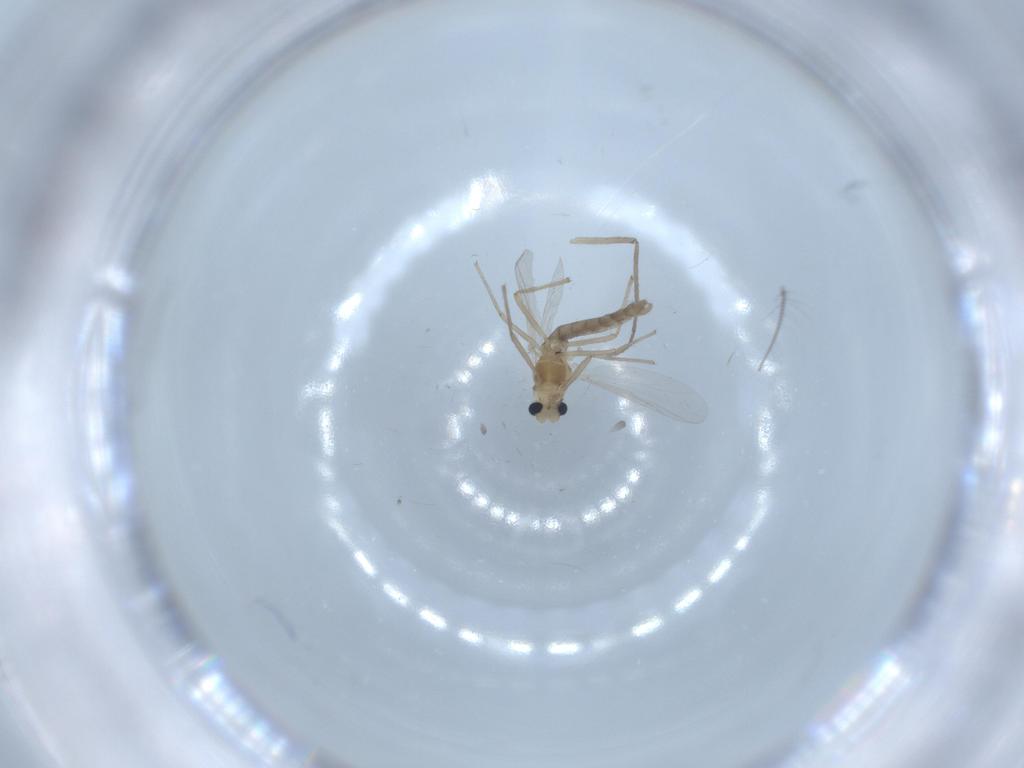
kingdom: Animalia
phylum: Arthropoda
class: Insecta
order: Diptera
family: Chironomidae
